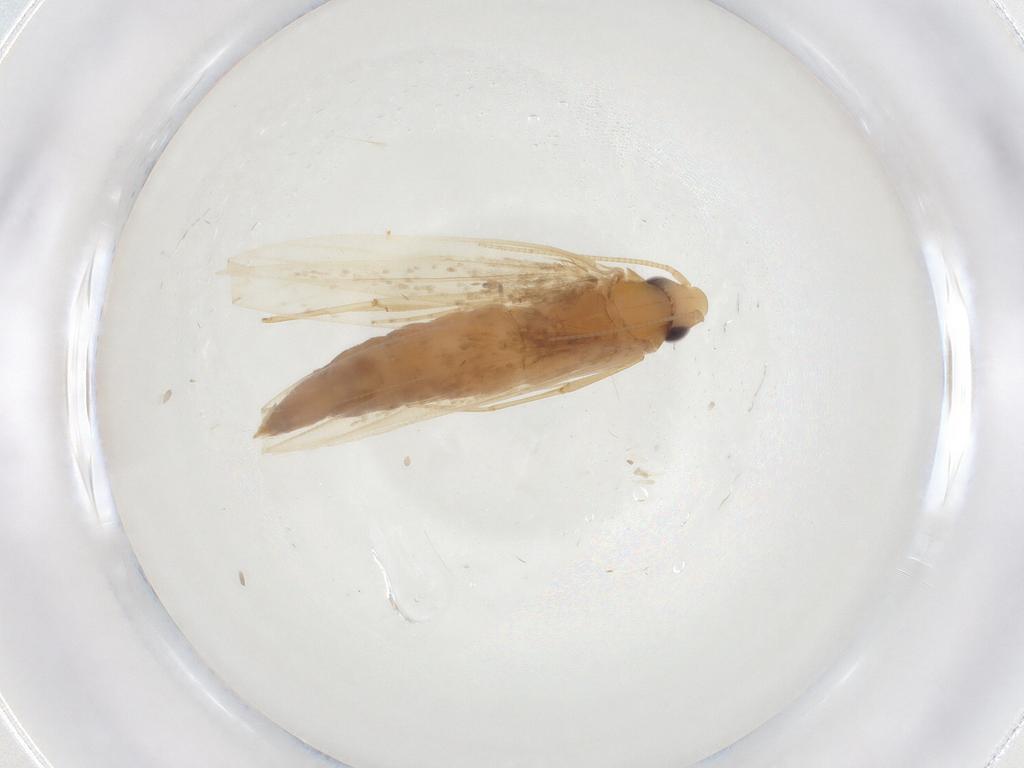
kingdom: Animalia
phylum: Arthropoda
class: Insecta
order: Lepidoptera
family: Tineidae
